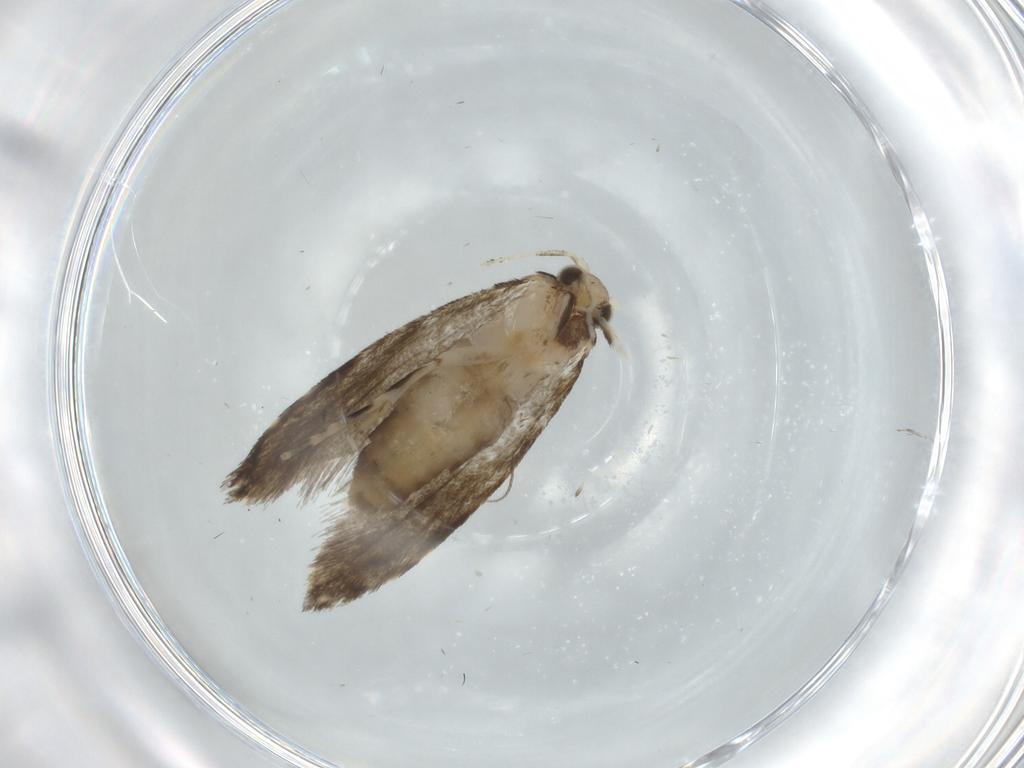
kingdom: Animalia
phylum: Arthropoda
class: Insecta
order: Lepidoptera
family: Tineidae
